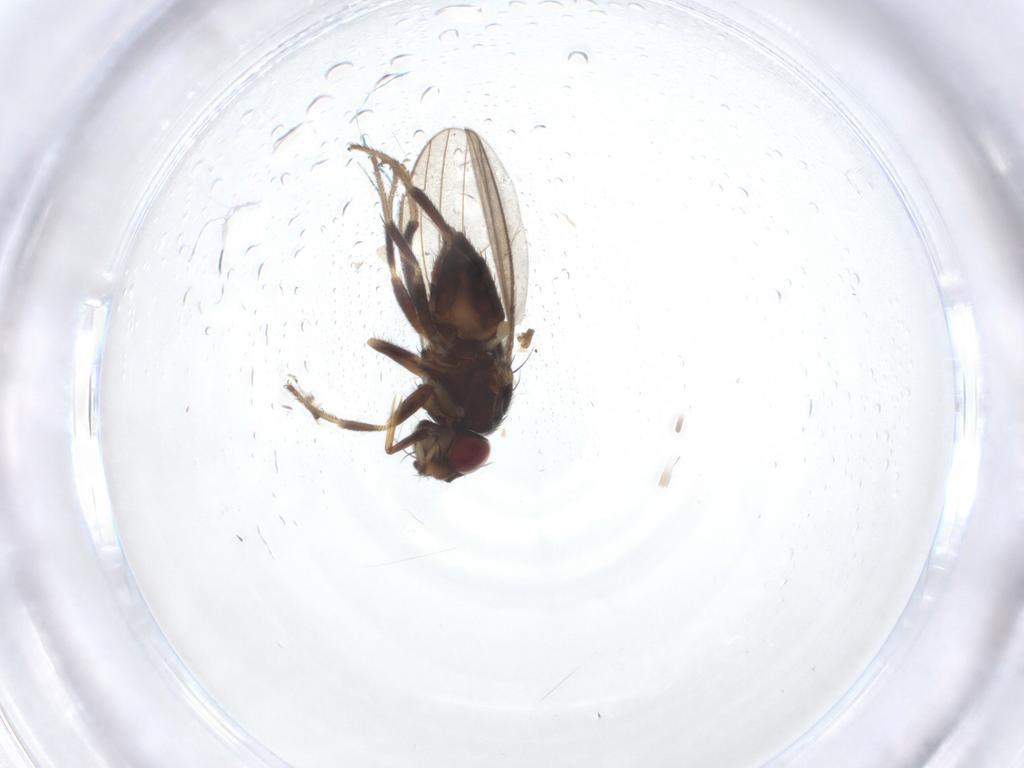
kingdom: Animalia
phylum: Arthropoda
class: Insecta
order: Diptera
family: Milichiidae
